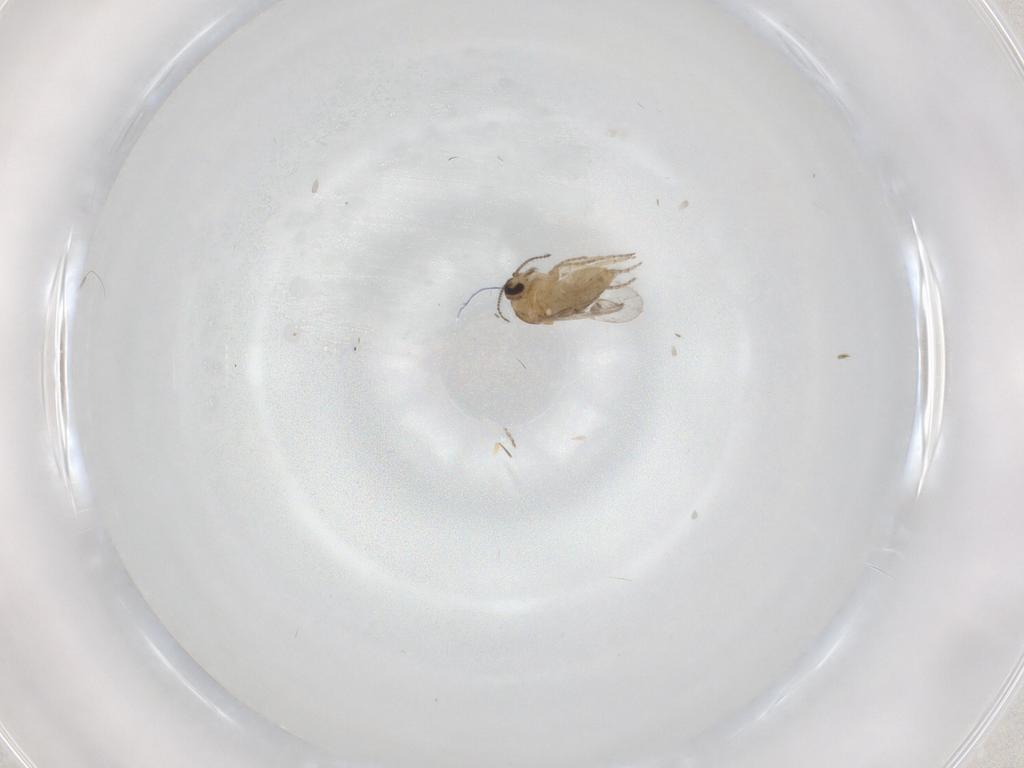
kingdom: Animalia
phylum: Arthropoda
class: Insecta
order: Diptera
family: Ceratopogonidae
